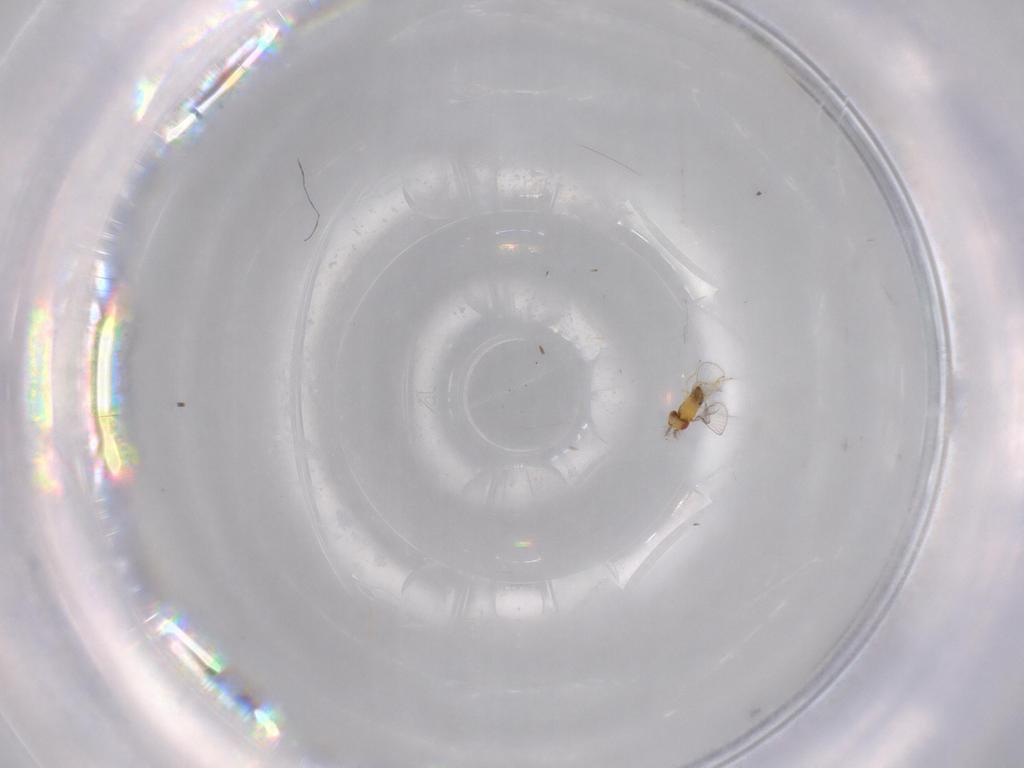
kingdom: Animalia
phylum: Arthropoda
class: Insecta
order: Hymenoptera
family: Trichogrammatidae
